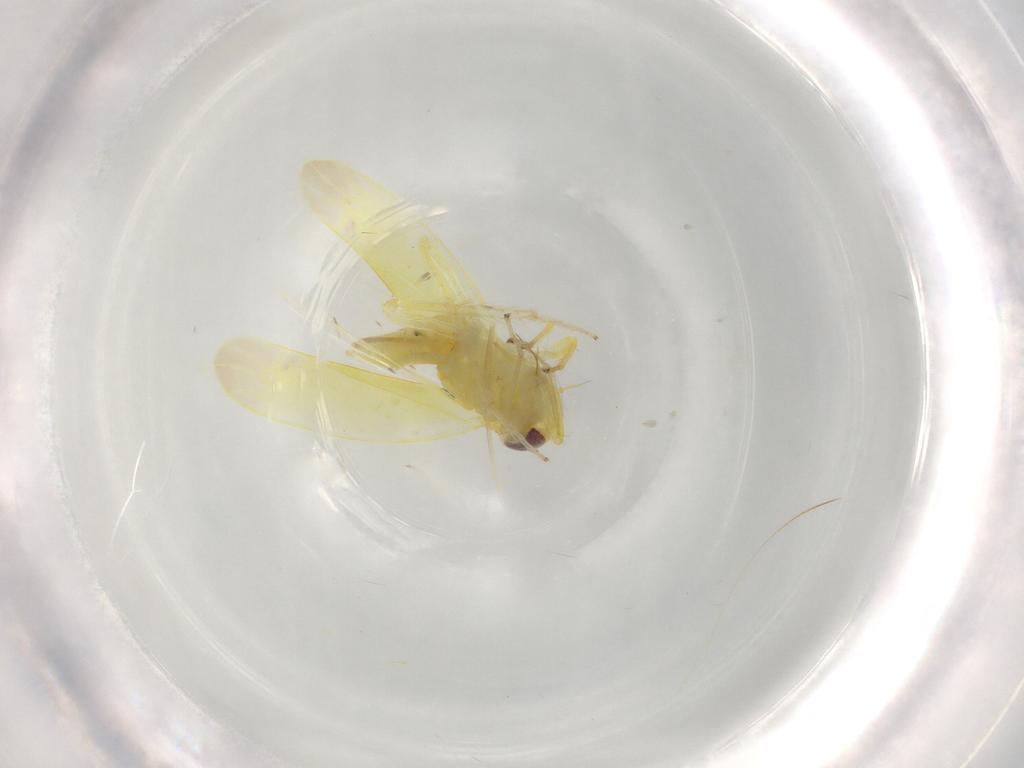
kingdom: Animalia
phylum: Arthropoda
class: Insecta
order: Hemiptera
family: Cicadellidae
